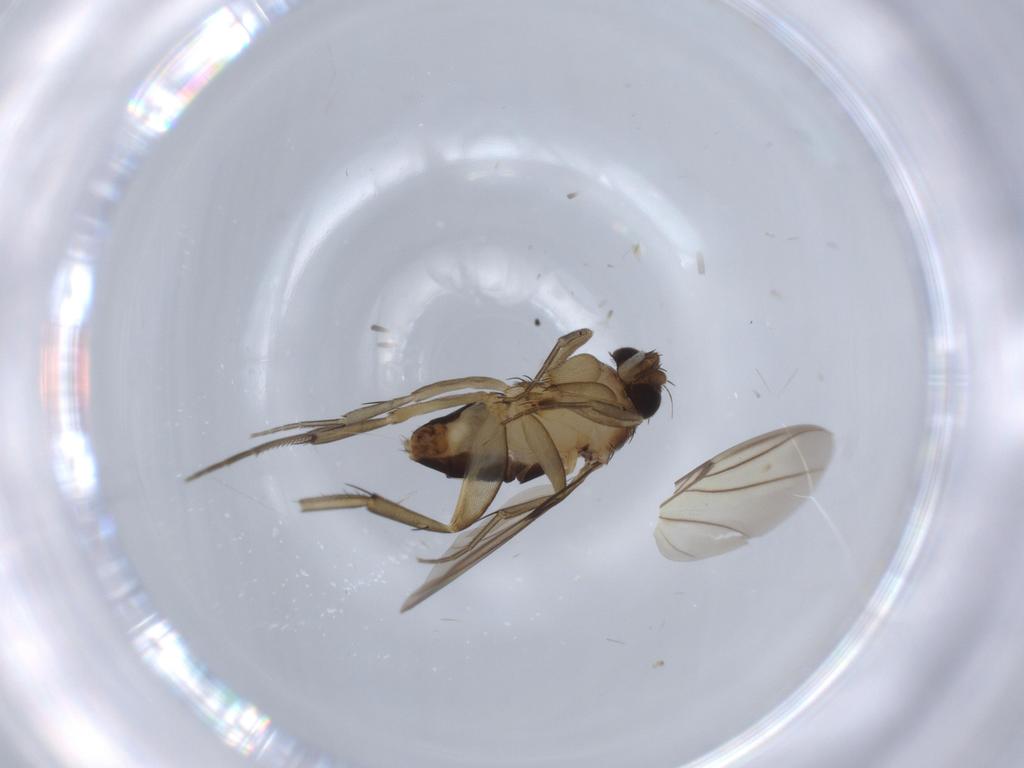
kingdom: Animalia
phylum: Arthropoda
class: Insecta
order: Diptera
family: Phoridae
